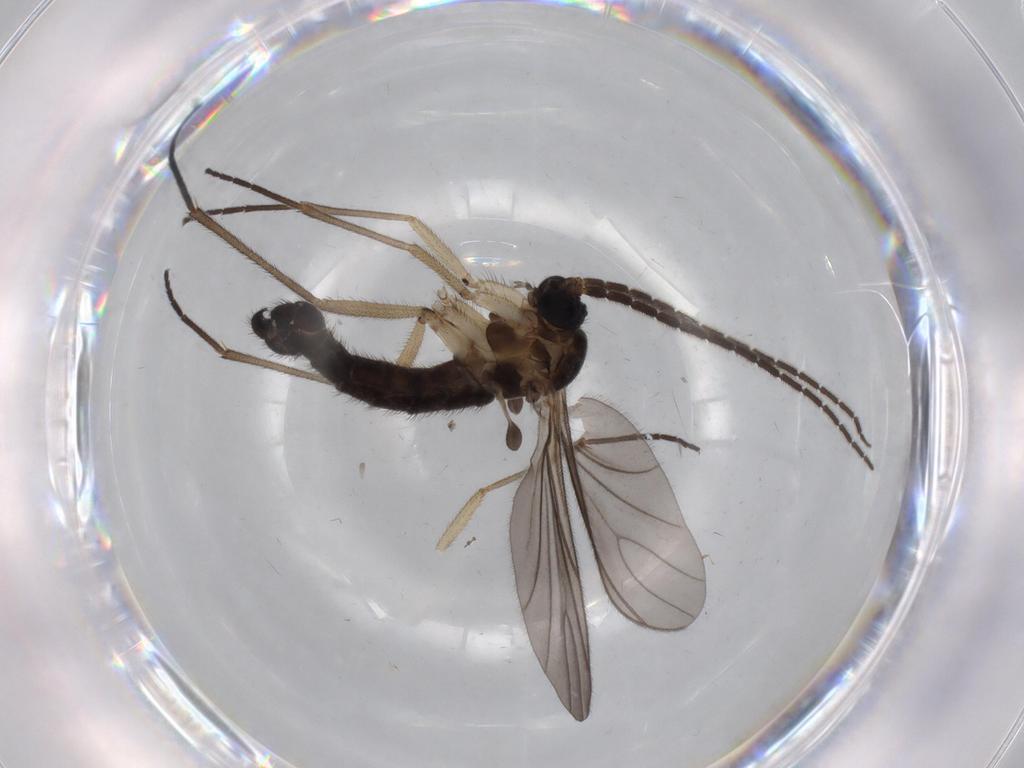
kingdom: Animalia
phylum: Arthropoda
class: Insecta
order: Diptera
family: Sciaridae
